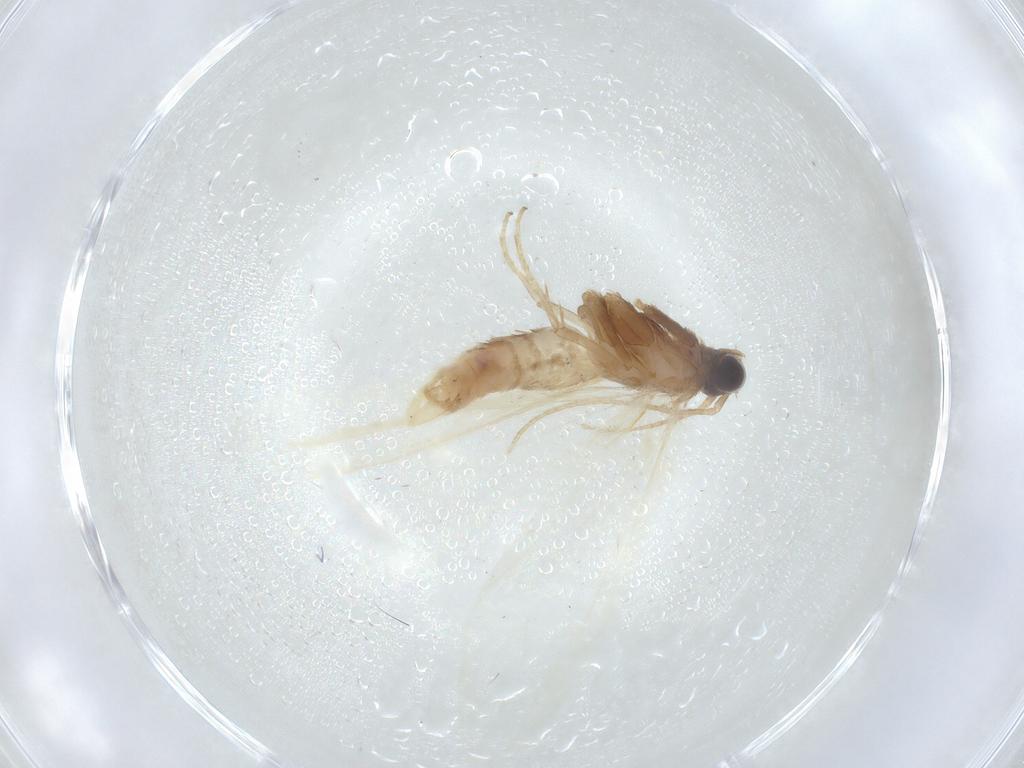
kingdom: Animalia
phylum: Arthropoda
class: Insecta
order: Lepidoptera
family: Pyralidae
